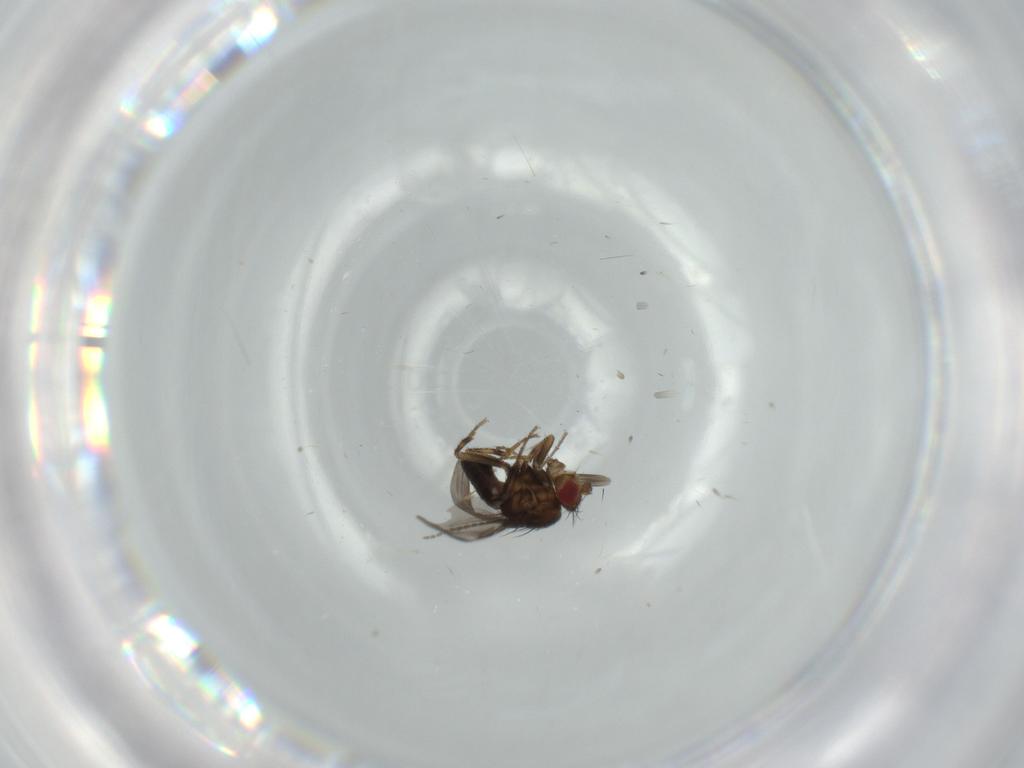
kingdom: Animalia
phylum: Arthropoda
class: Insecta
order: Diptera
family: Sciaridae
